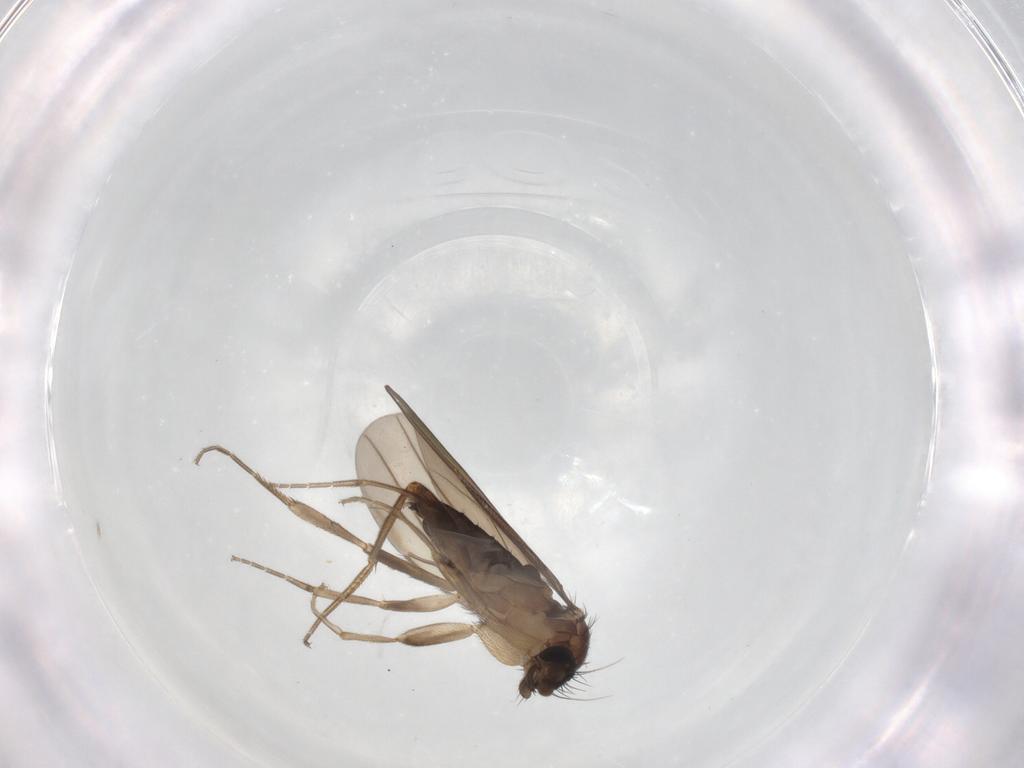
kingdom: Animalia
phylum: Arthropoda
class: Insecta
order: Diptera
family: Phoridae
